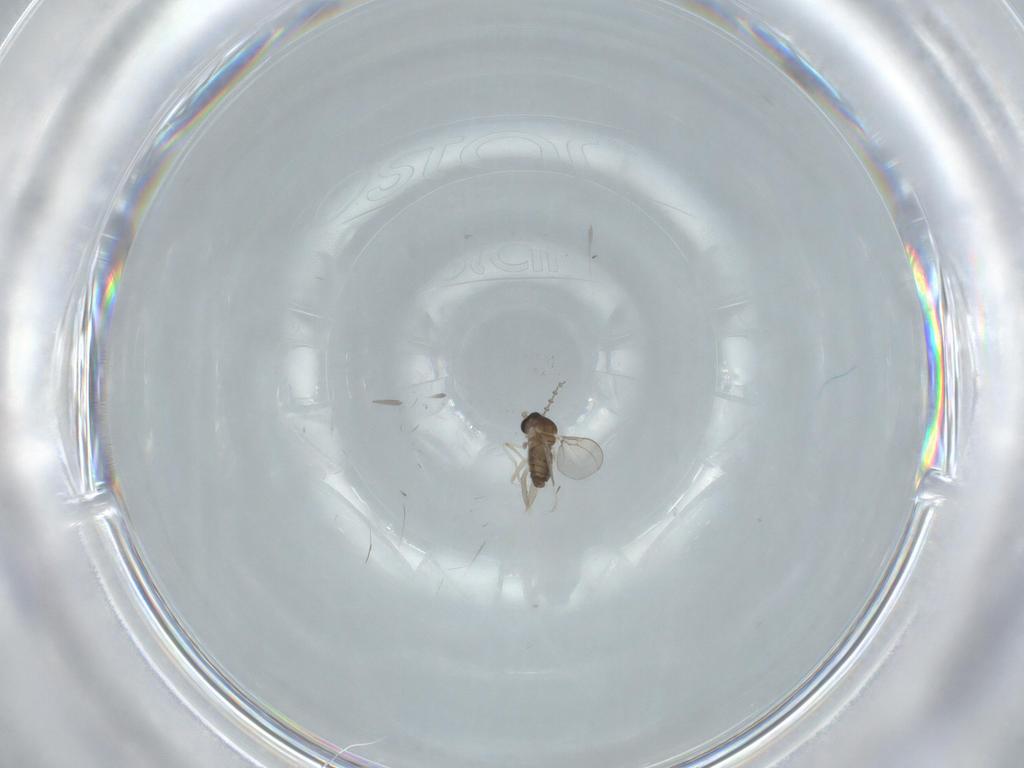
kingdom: Animalia
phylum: Arthropoda
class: Insecta
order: Diptera
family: Cecidomyiidae
